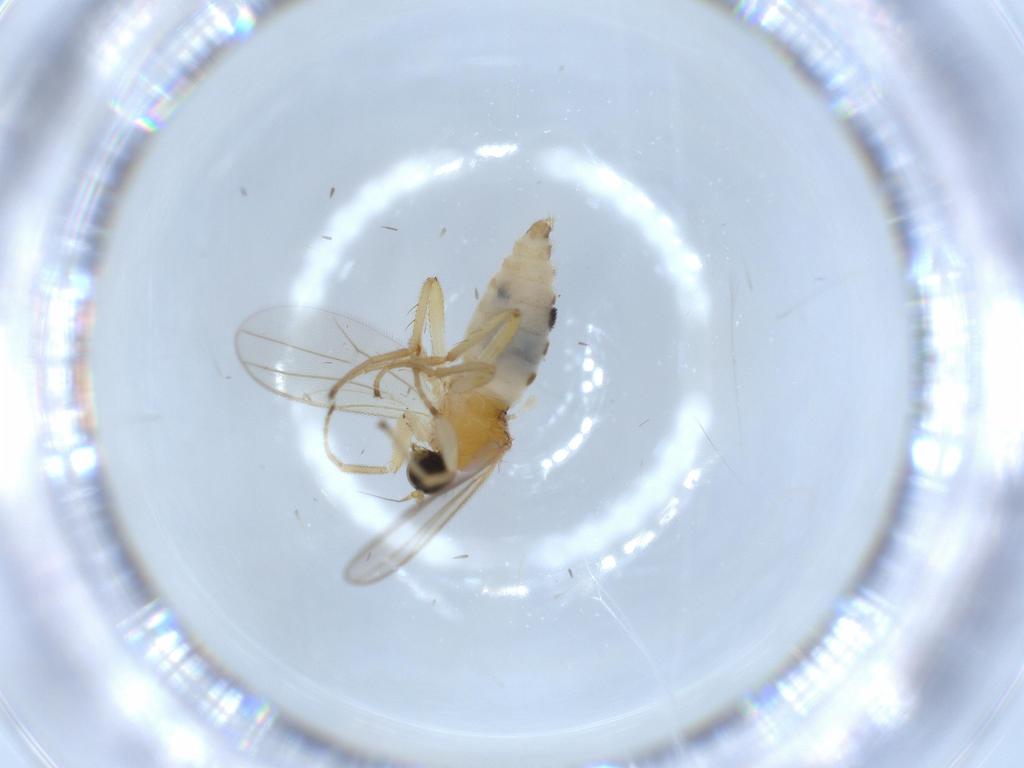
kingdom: Animalia
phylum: Arthropoda
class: Insecta
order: Diptera
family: Hybotidae
